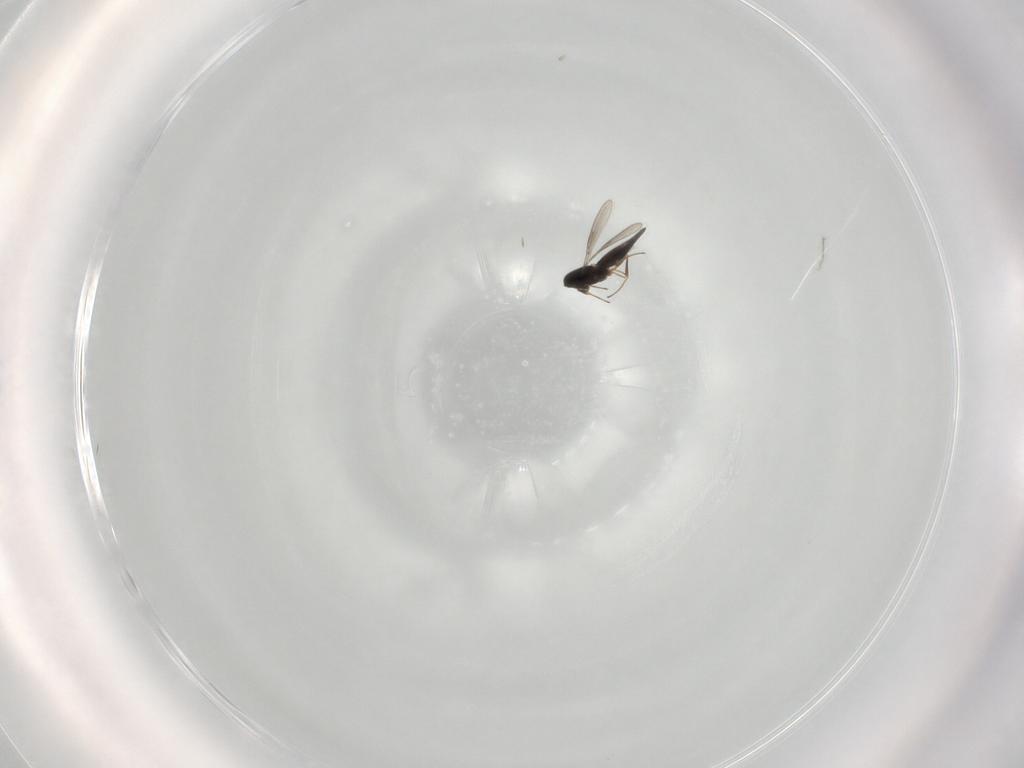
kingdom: Animalia
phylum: Arthropoda
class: Insecta
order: Hymenoptera
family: Scelionidae
